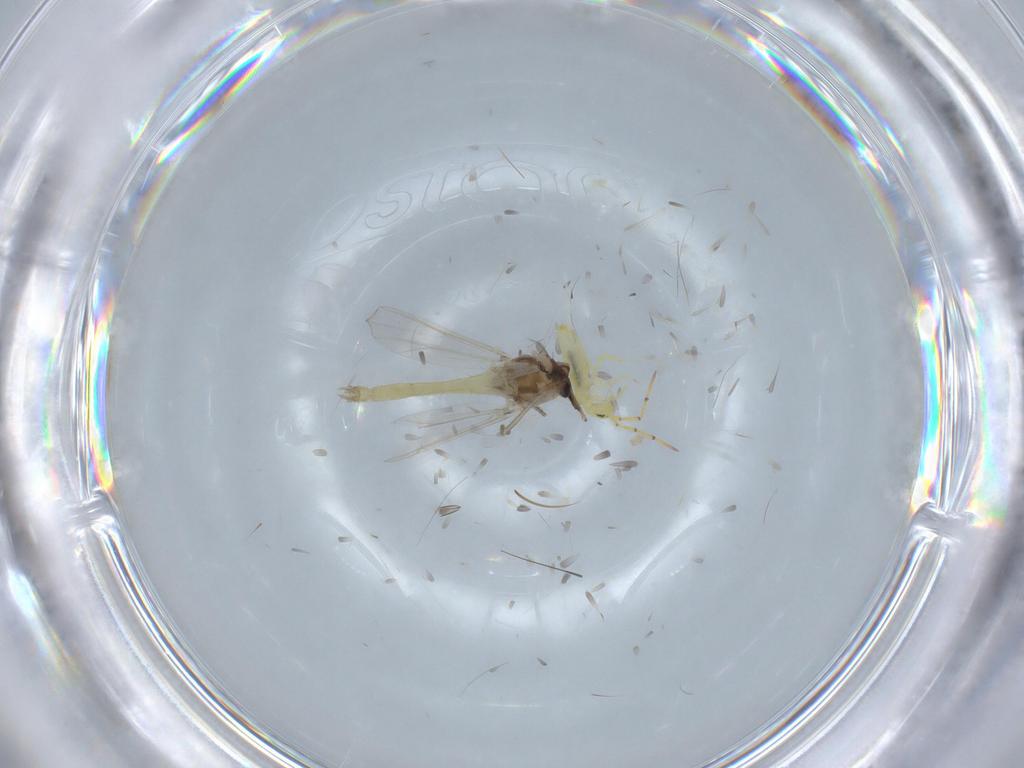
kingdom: Animalia
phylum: Arthropoda
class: Insecta
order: Diptera
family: Chironomidae
